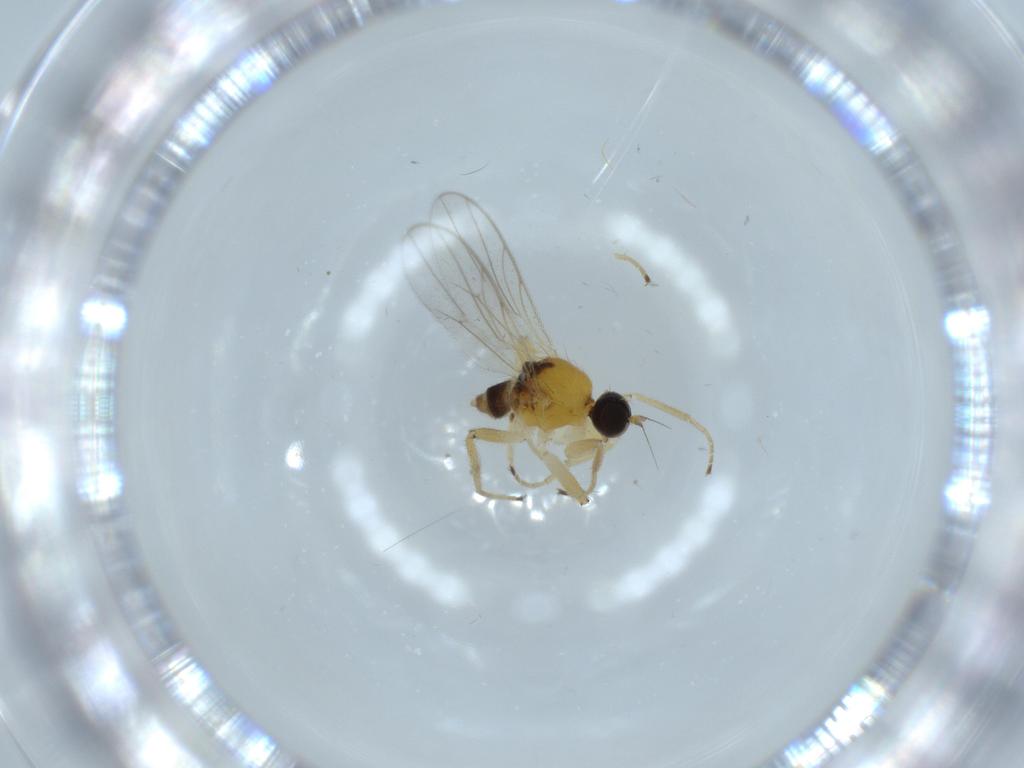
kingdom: Animalia
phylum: Arthropoda
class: Insecta
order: Diptera
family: Hybotidae
